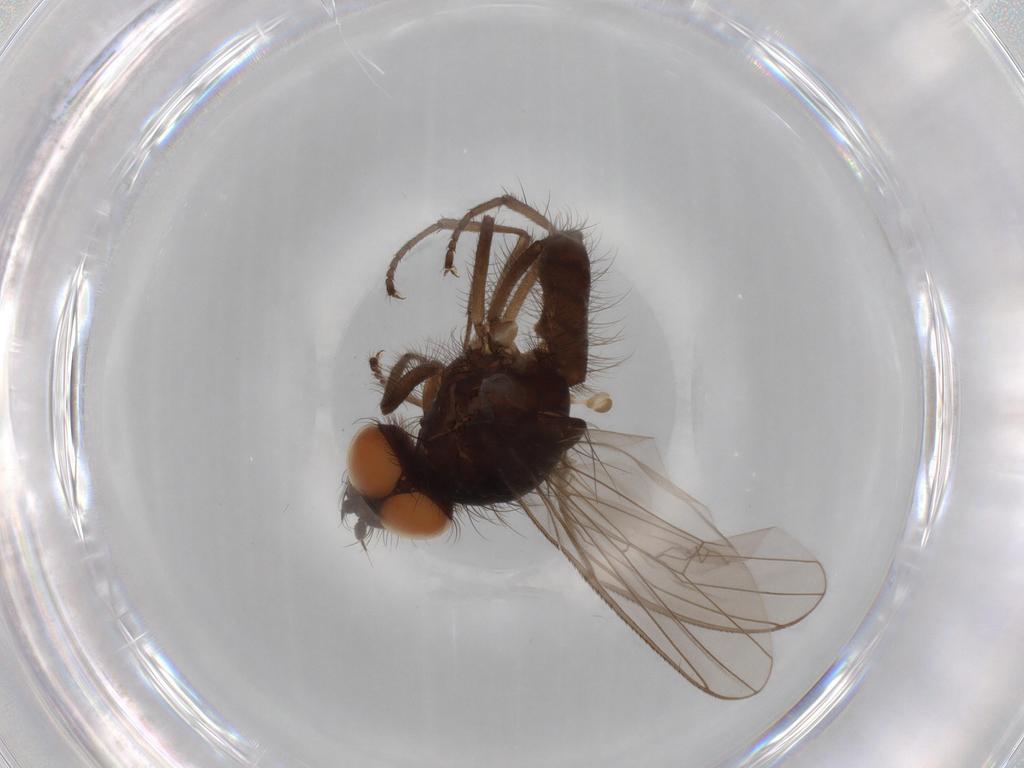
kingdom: Animalia
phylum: Arthropoda
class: Insecta
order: Diptera
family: Anthomyiidae
